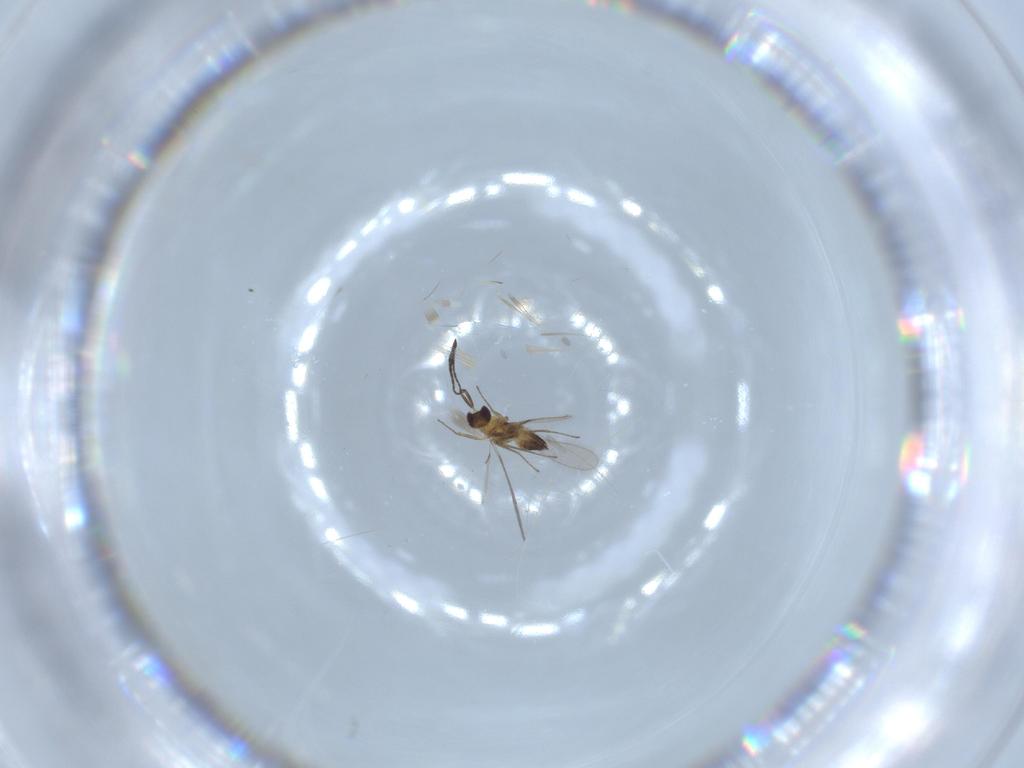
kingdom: Animalia
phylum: Arthropoda
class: Insecta
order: Hymenoptera
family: Mymaridae
